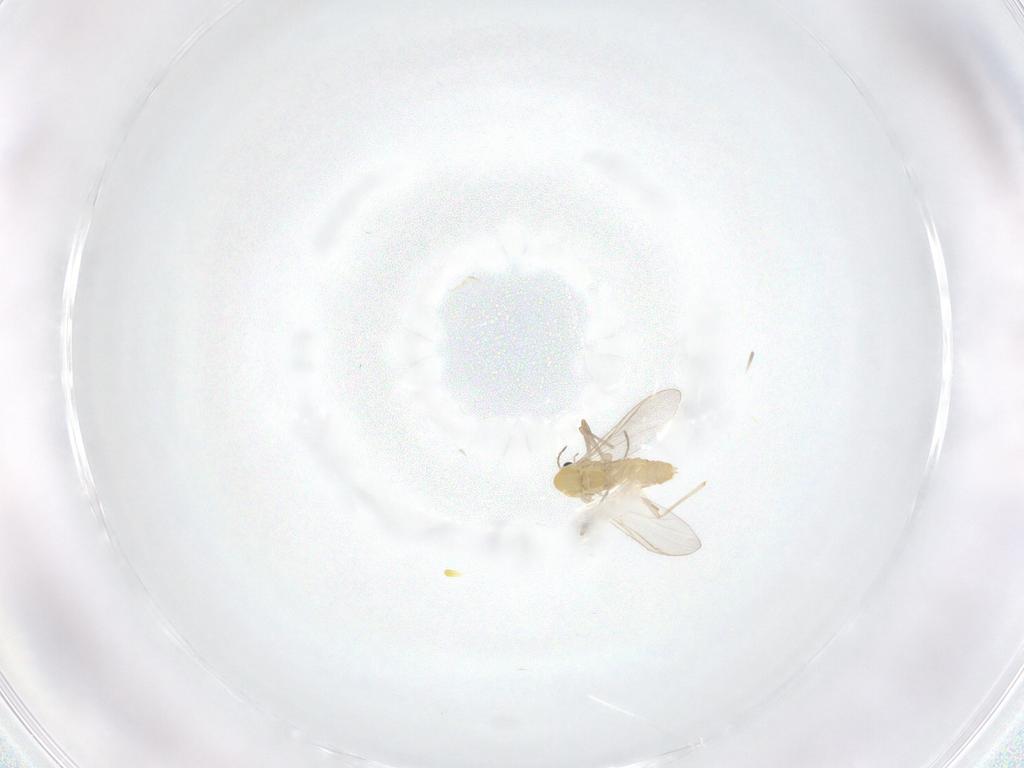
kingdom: Animalia
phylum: Arthropoda
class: Insecta
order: Diptera
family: Chironomidae
